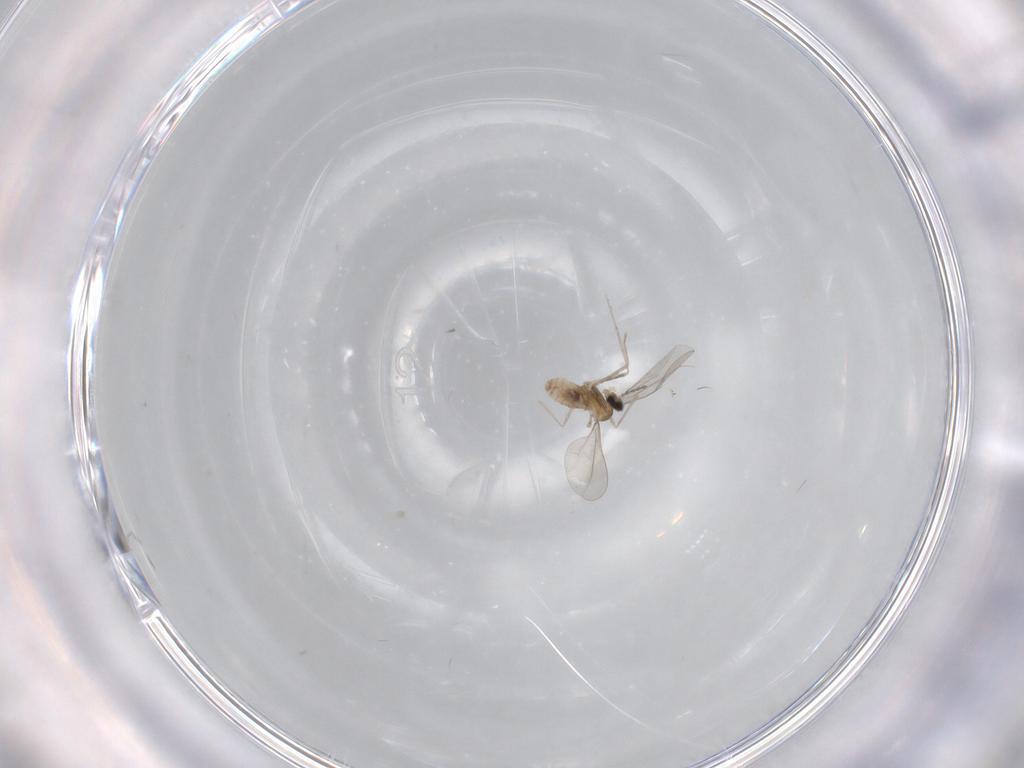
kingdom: Animalia
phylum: Arthropoda
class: Insecta
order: Diptera
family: Cecidomyiidae
